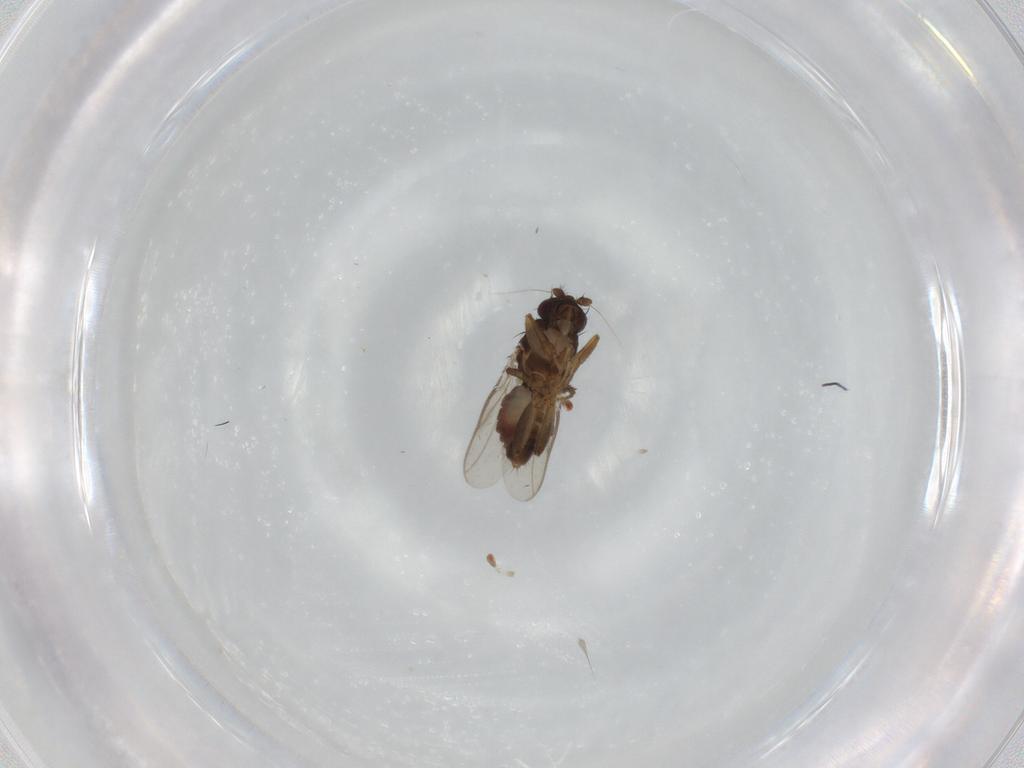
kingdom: Animalia
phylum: Arthropoda
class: Insecta
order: Diptera
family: Sphaeroceridae
